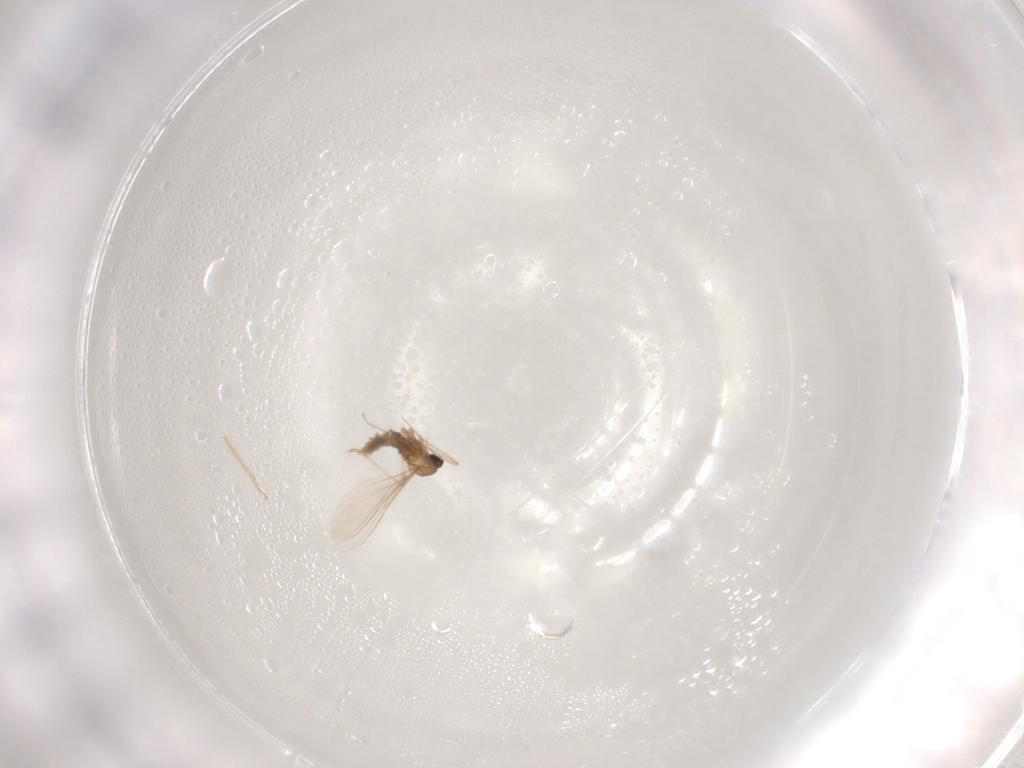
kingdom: Animalia
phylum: Arthropoda
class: Insecta
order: Diptera
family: Cecidomyiidae
